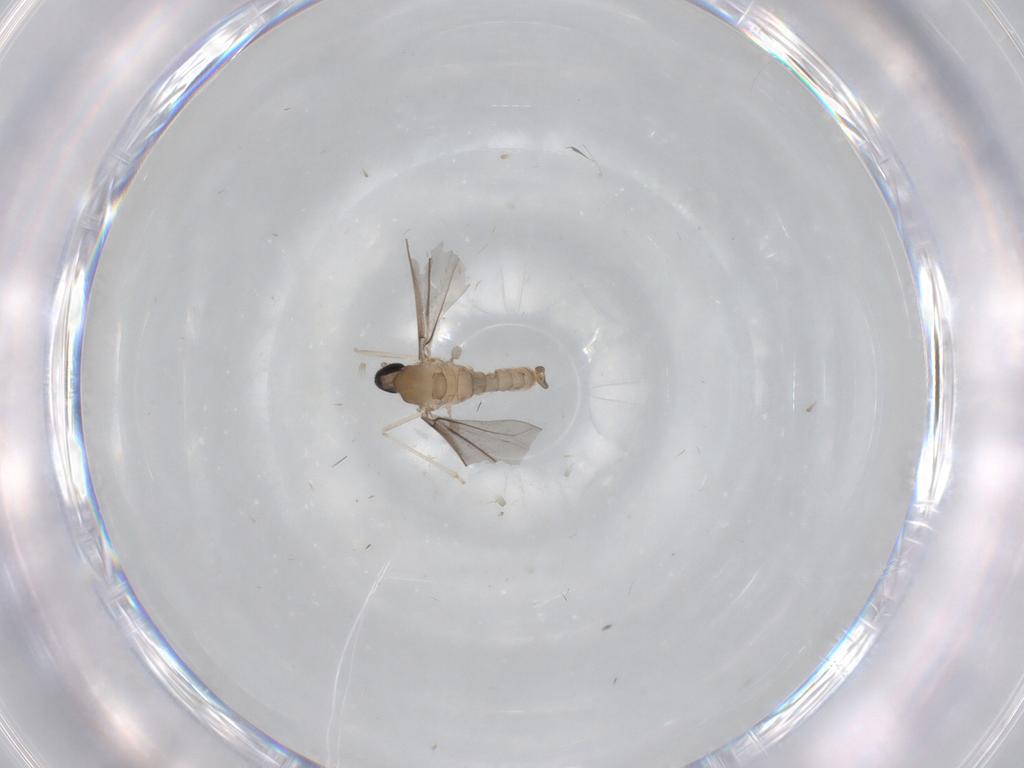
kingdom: Animalia
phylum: Arthropoda
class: Insecta
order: Diptera
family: Cecidomyiidae
